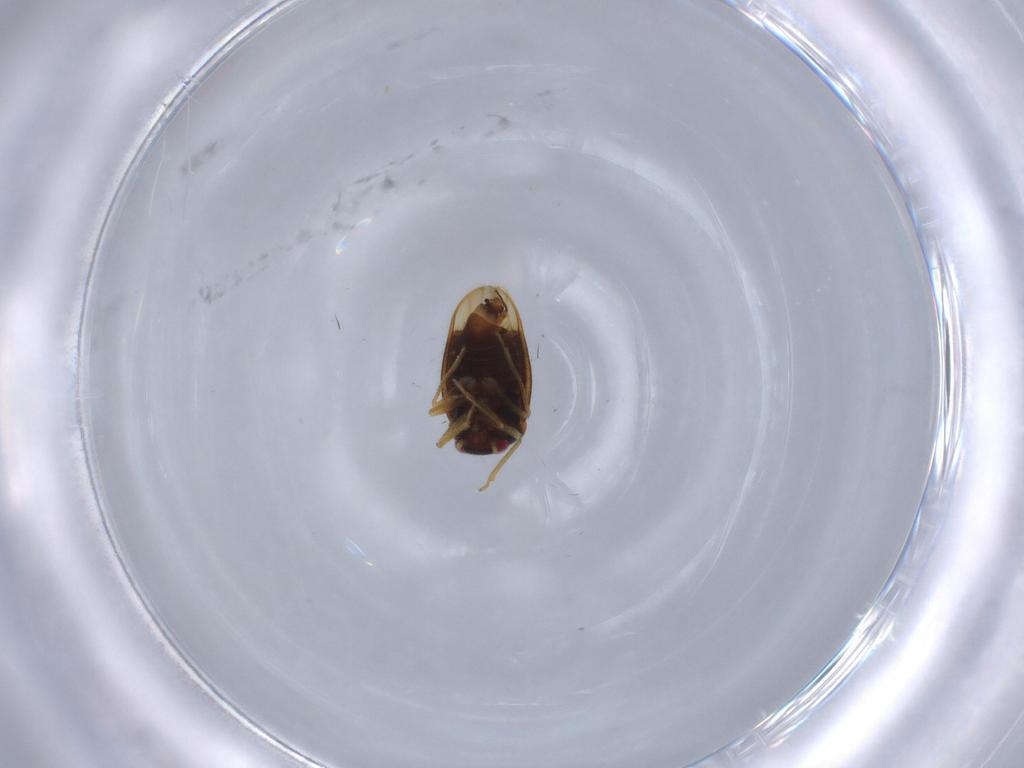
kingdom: Animalia
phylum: Arthropoda
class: Insecta
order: Hemiptera
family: Schizopteridae
